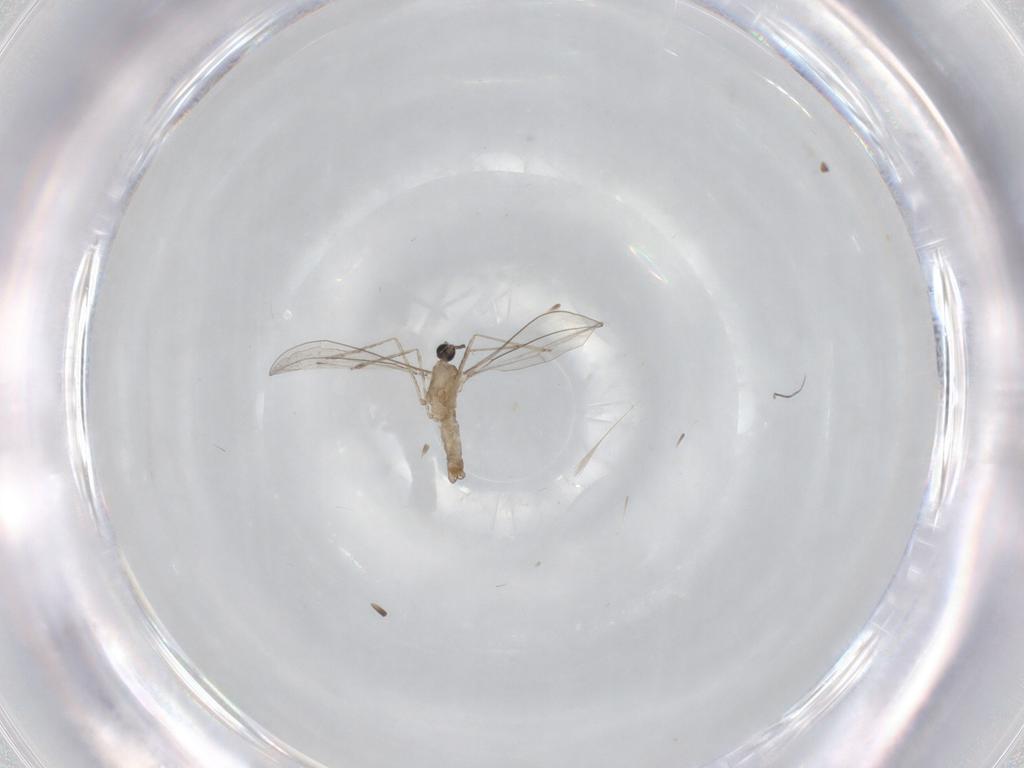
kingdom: Animalia
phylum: Arthropoda
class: Insecta
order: Diptera
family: Cecidomyiidae
